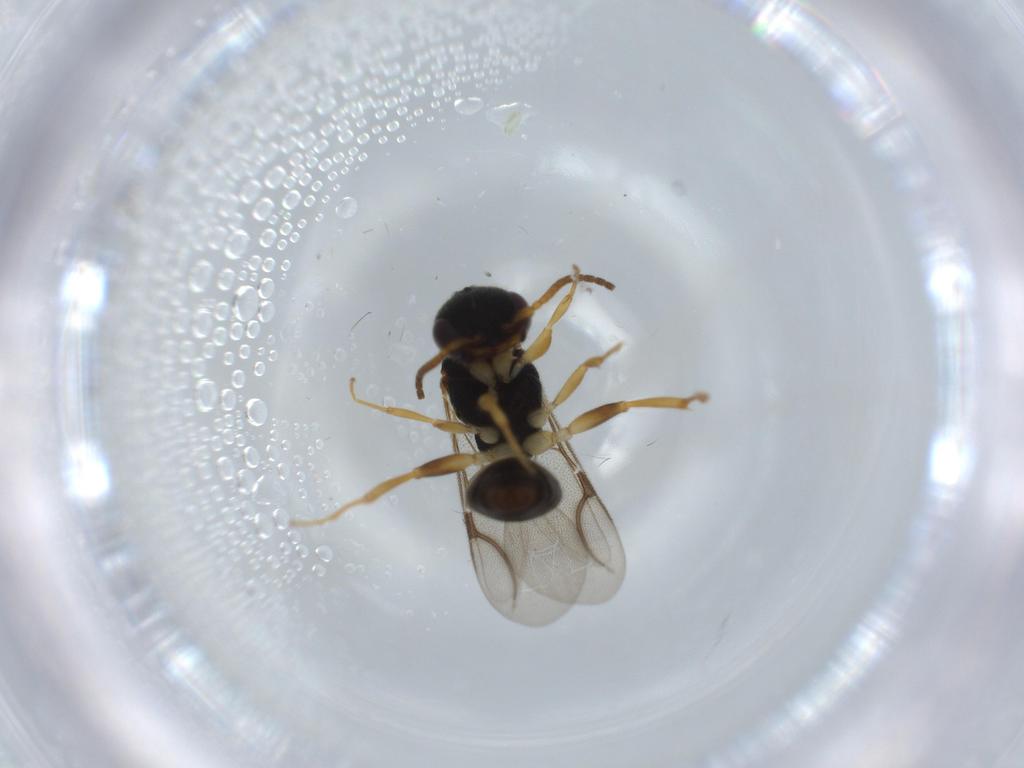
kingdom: Animalia
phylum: Arthropoda
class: Insecta
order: Hymenoptera
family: Bethylidae
